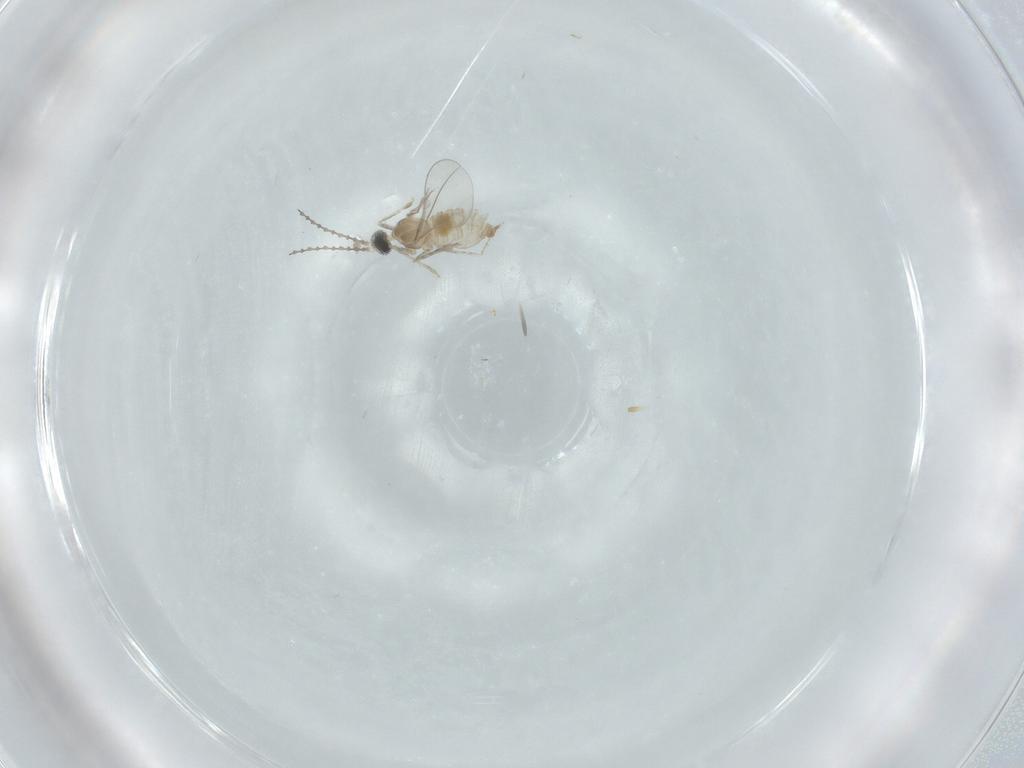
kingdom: Animalia
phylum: Arthropoda
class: Insecta
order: Diptera
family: Cecidomyiidae
